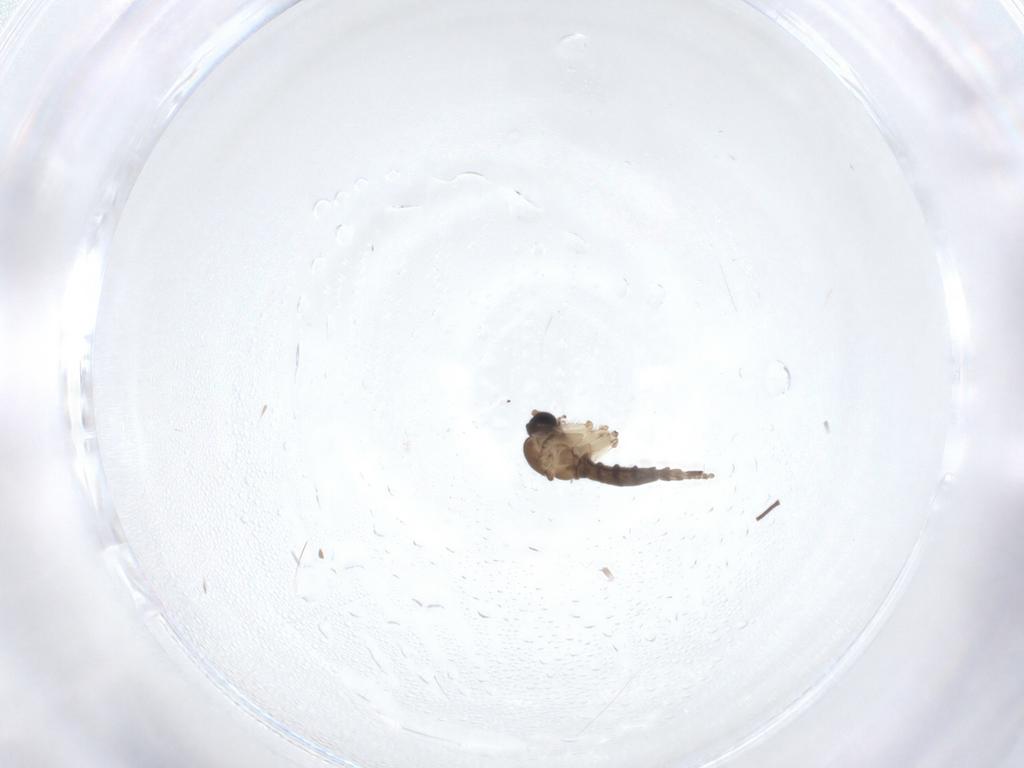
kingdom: Animalia
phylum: Arthropoda
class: Insecta
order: Diptera
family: Sciaridae
